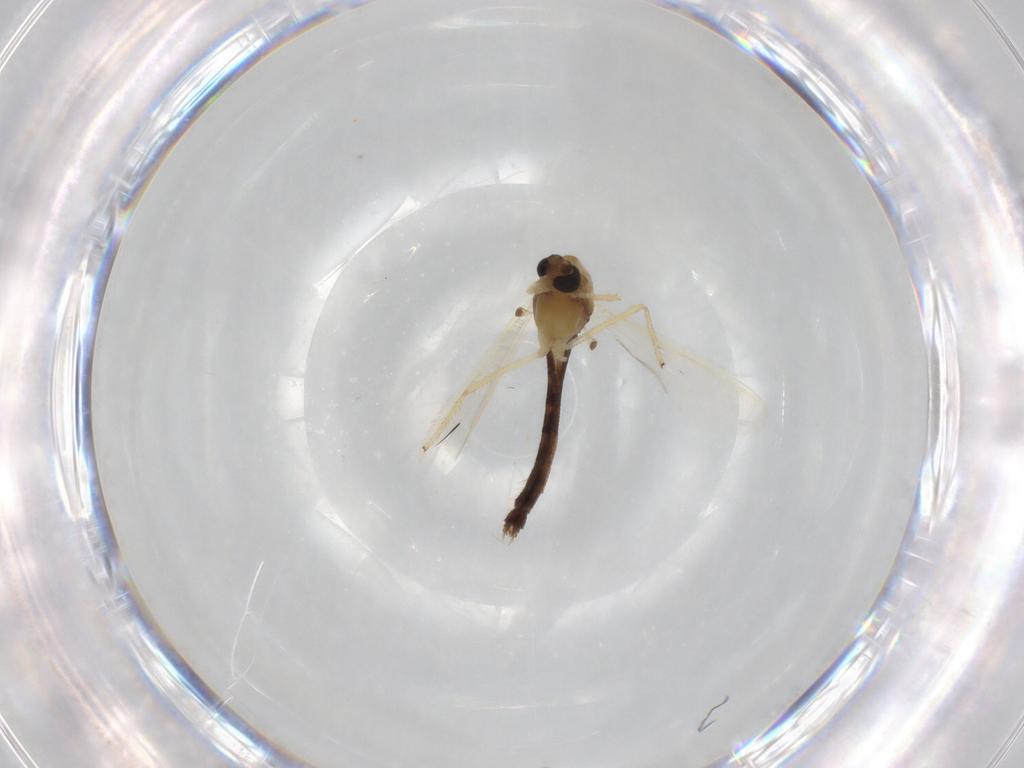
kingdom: Animalia
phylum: Arthropoda
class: Insecta
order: Diptera
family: Chironomidae
